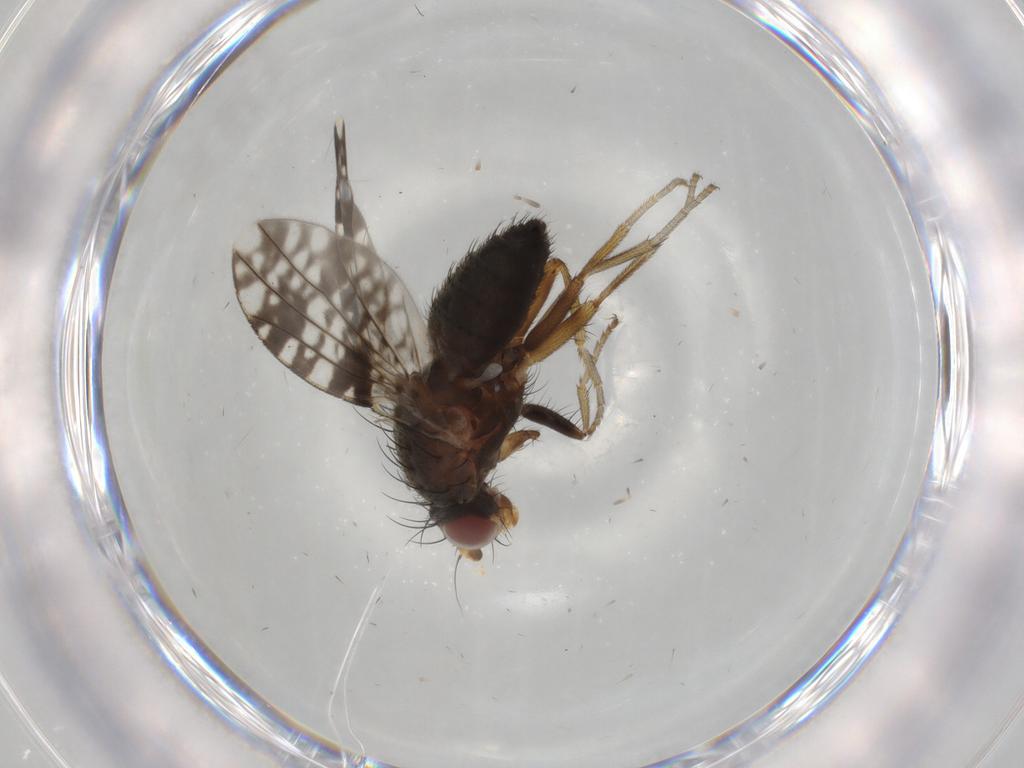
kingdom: Animalia
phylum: Arthropoda
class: Insecta
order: Diptera
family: Tephritidae
